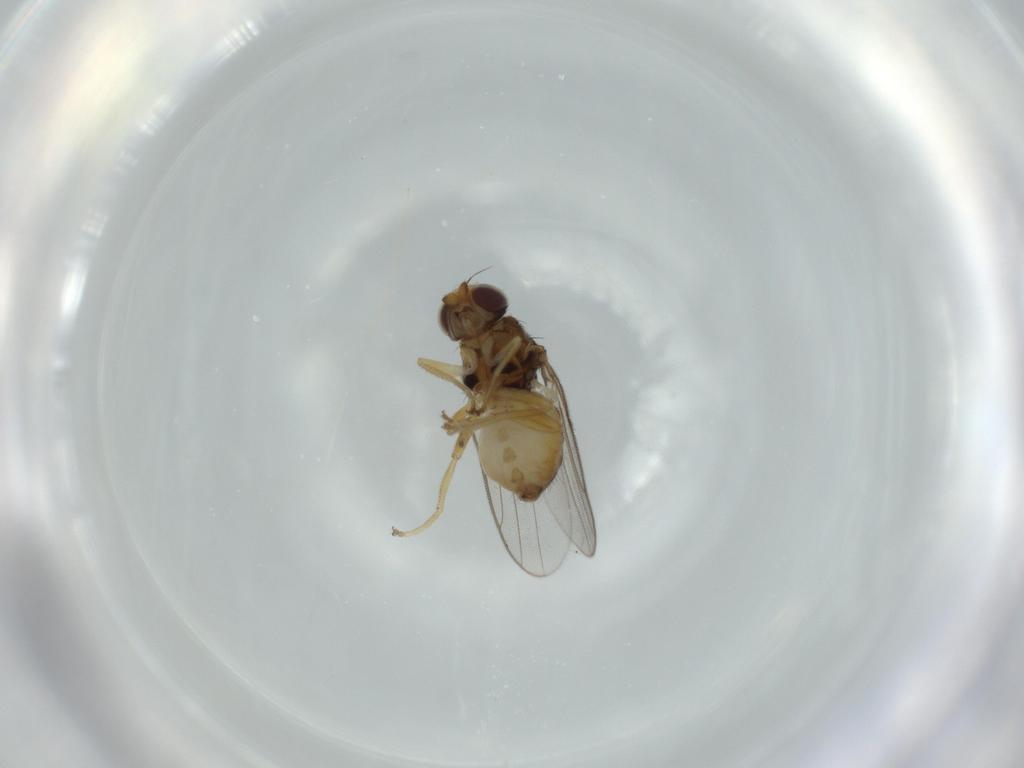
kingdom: Animalia
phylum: Arthropoda
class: Insecta
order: Diptera
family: Chloropidae
